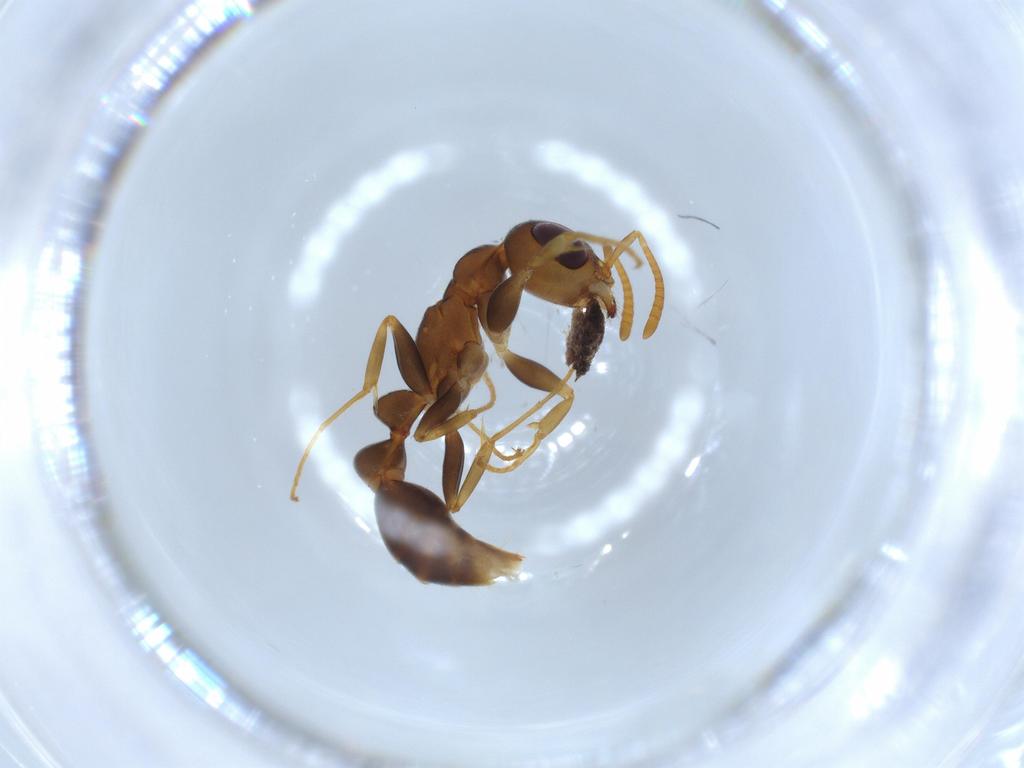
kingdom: Animalia
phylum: Arthropoda
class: Insecta
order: Hymenoptera
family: Formicidae
